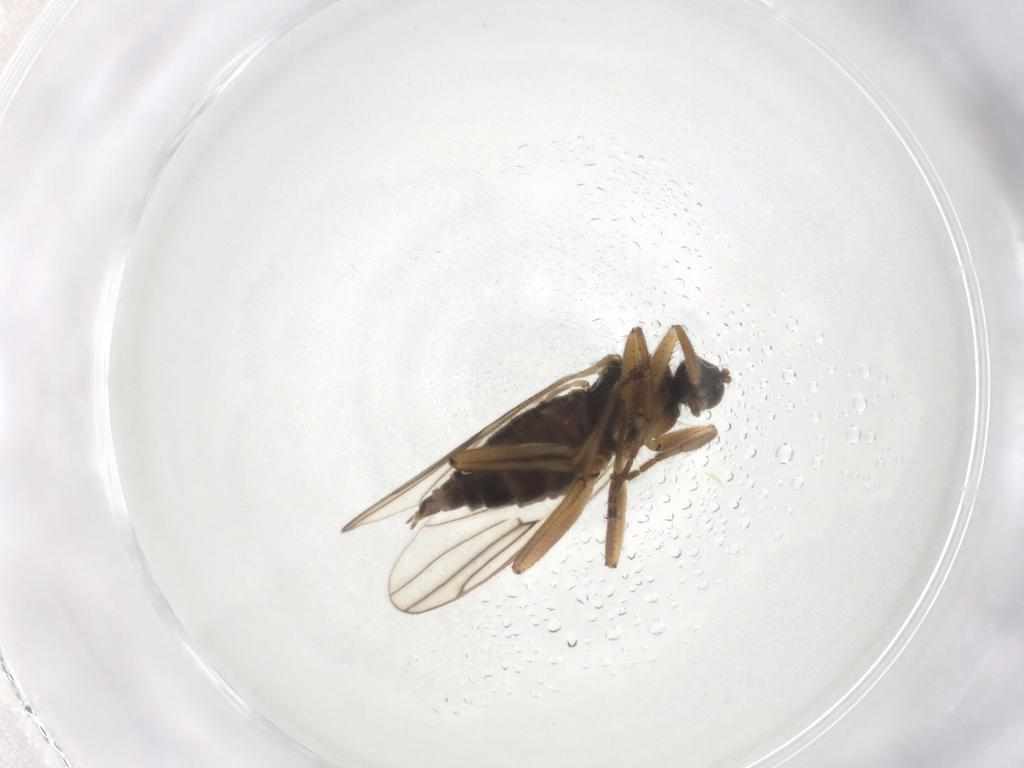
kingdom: Animalia
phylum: Arthropoda
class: Insecta
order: Diptera
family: Hybotidae
